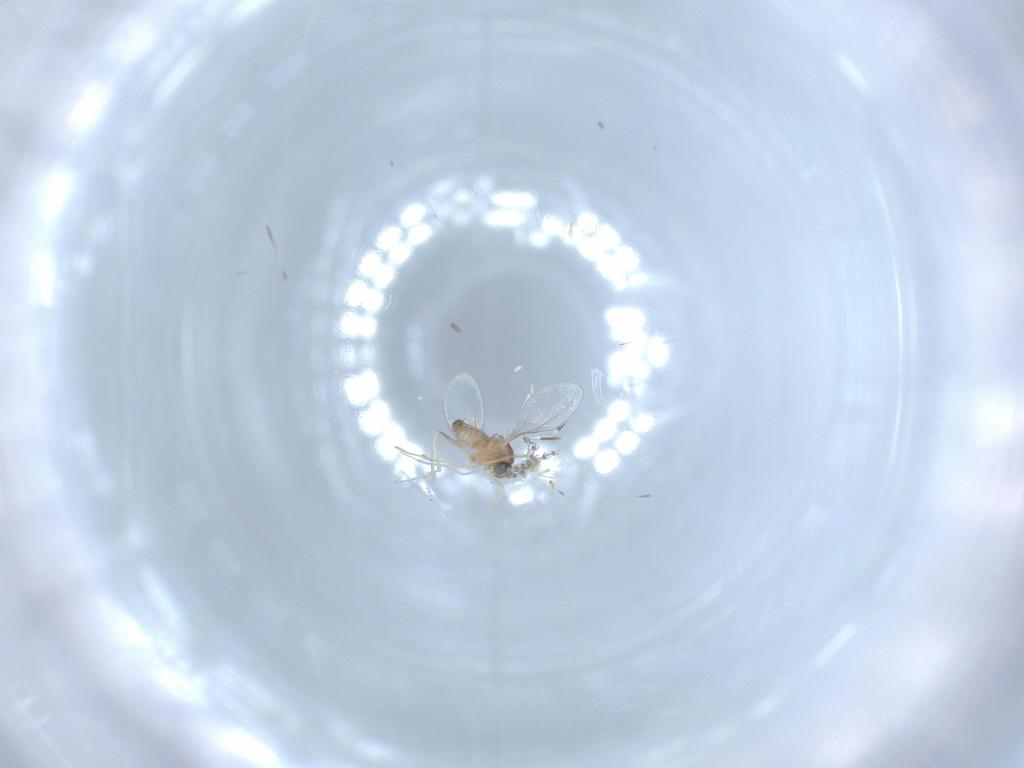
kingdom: Animalia
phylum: Arthropoda
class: Insecta
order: Diptera
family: Cecidomyiidae
